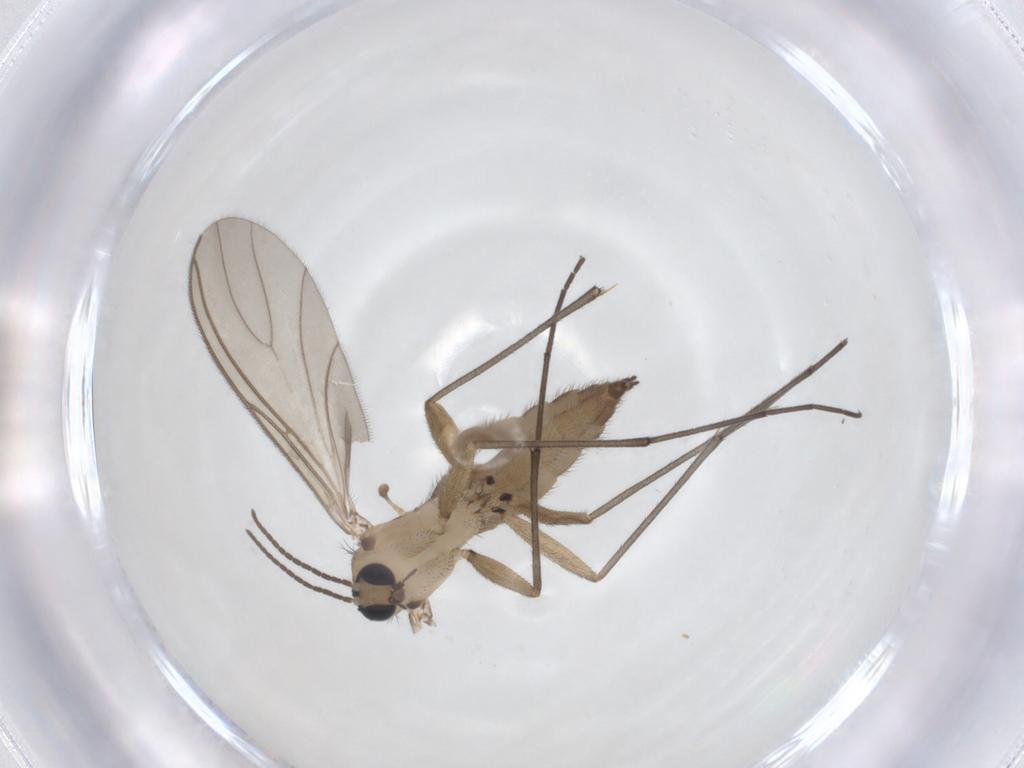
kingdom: Animalia
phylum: Arthropoda
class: Insecta
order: Diptera
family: Sciaridae
